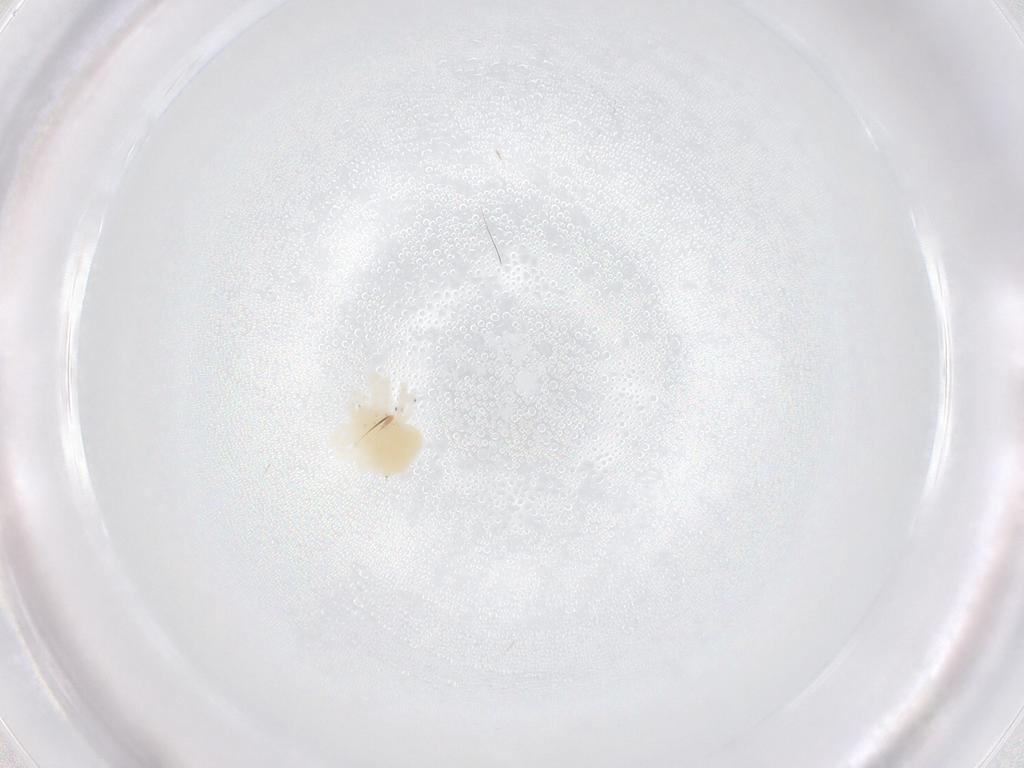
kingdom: Animalia
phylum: Arthropoda
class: Arachnida
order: Trombidiformes
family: Anystidae
